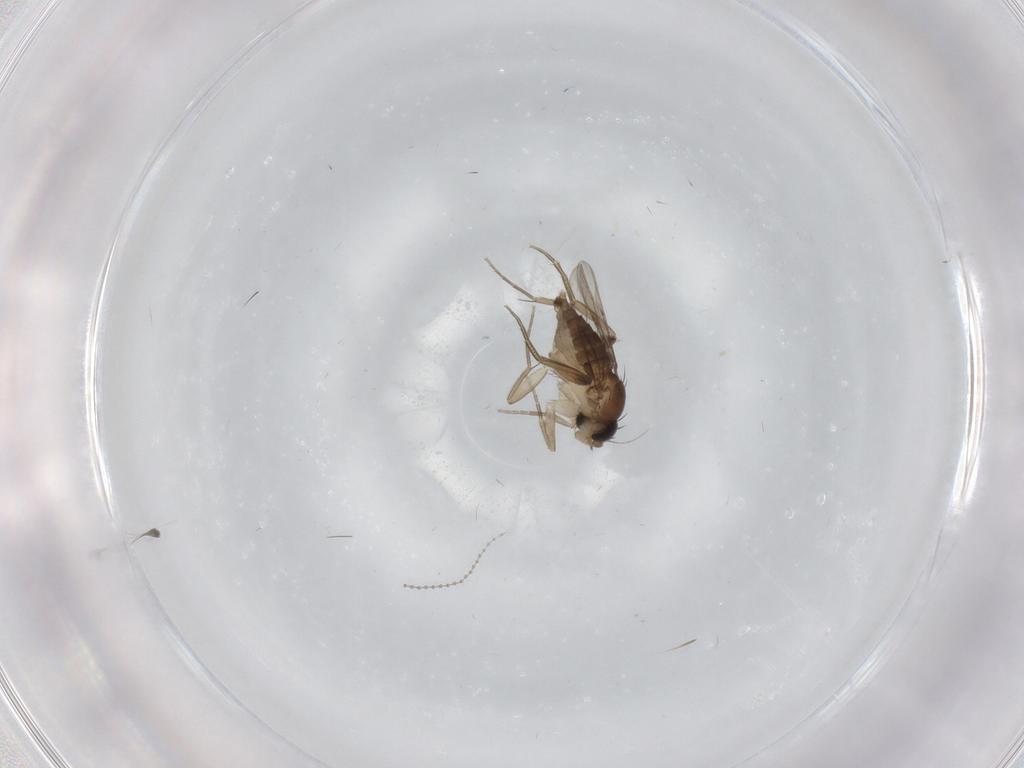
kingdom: Animalia
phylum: Arthropoda
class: Insecta
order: Diptera
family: Phoridae
